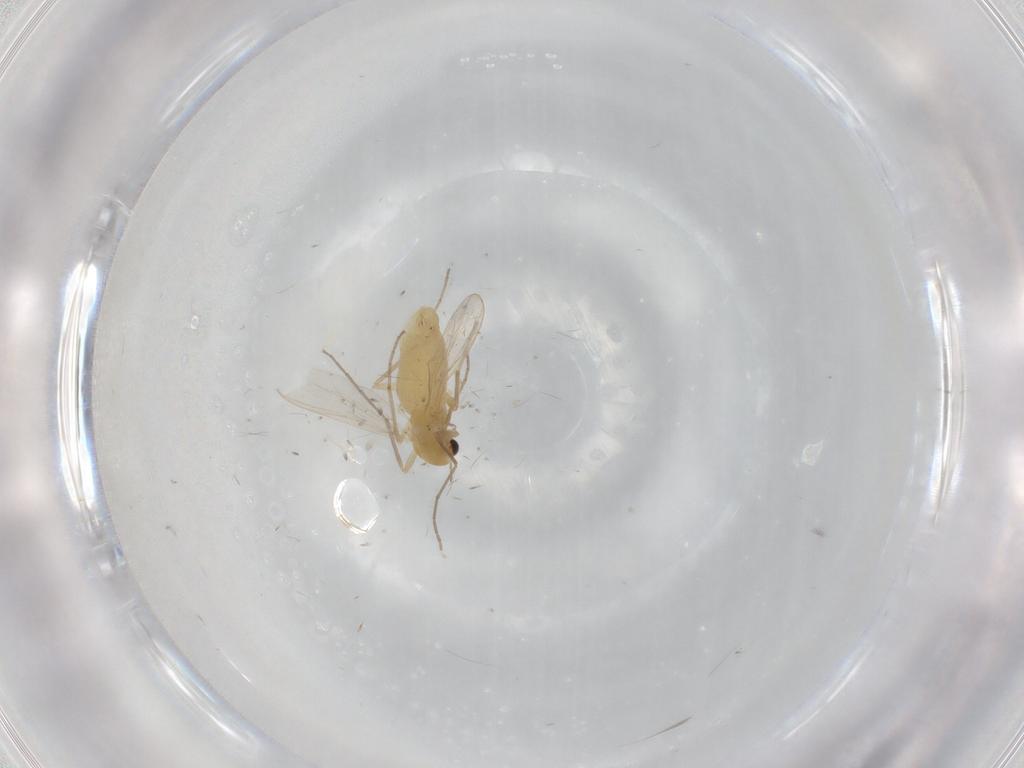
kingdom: Animalia
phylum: Arthropoda
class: Insecta
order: Diptera
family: Chironomidae
